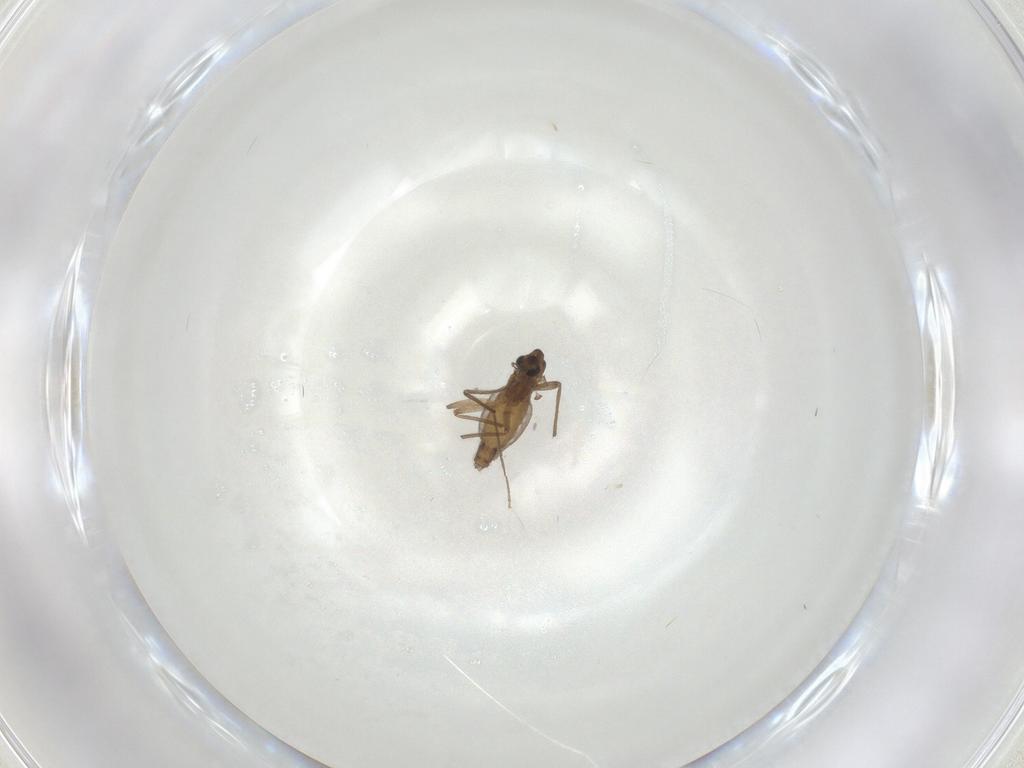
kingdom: Animalia
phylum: Arthropoda
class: Insecta
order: Diptera
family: Chironomidae
